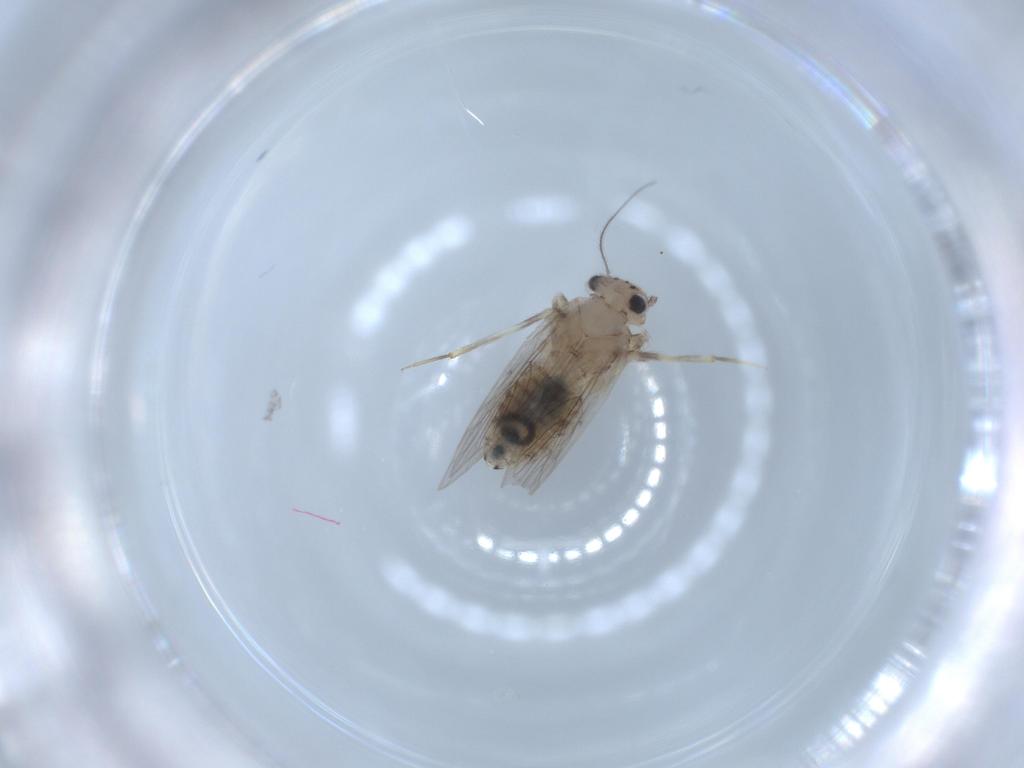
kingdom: Animalia
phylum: Arthropoda
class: Insecta
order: Psocodea
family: Lepidopsocidae
